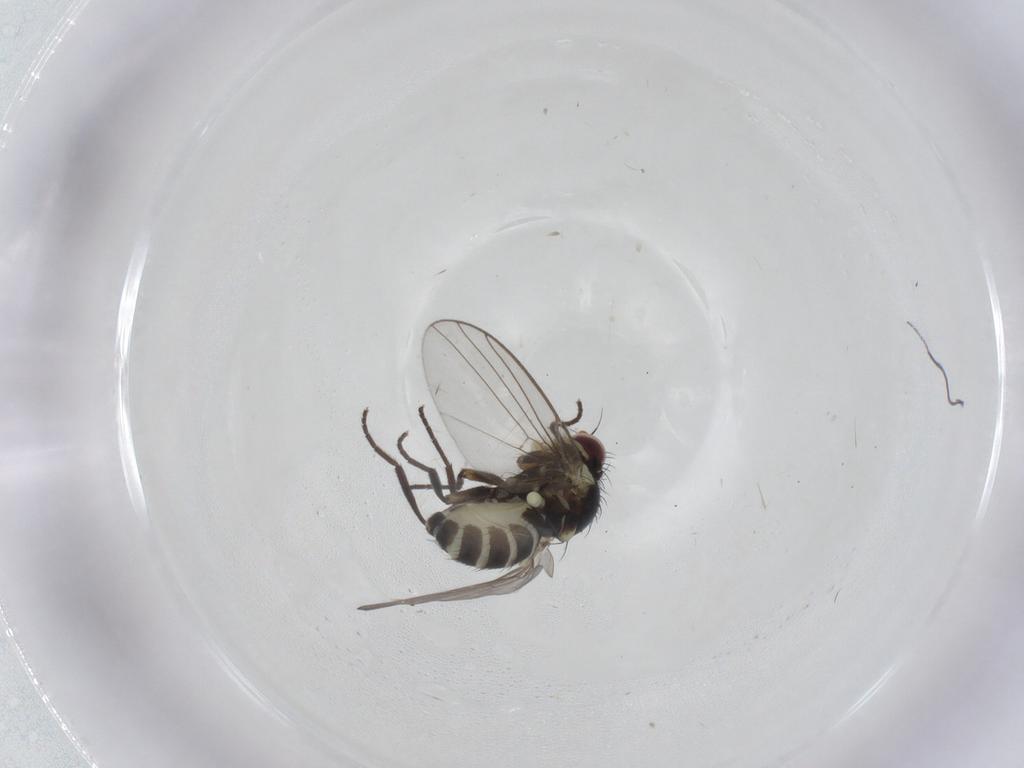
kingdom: Animalia
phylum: Arthropoda
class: Insecta
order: Diptera
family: Agromyzidae
